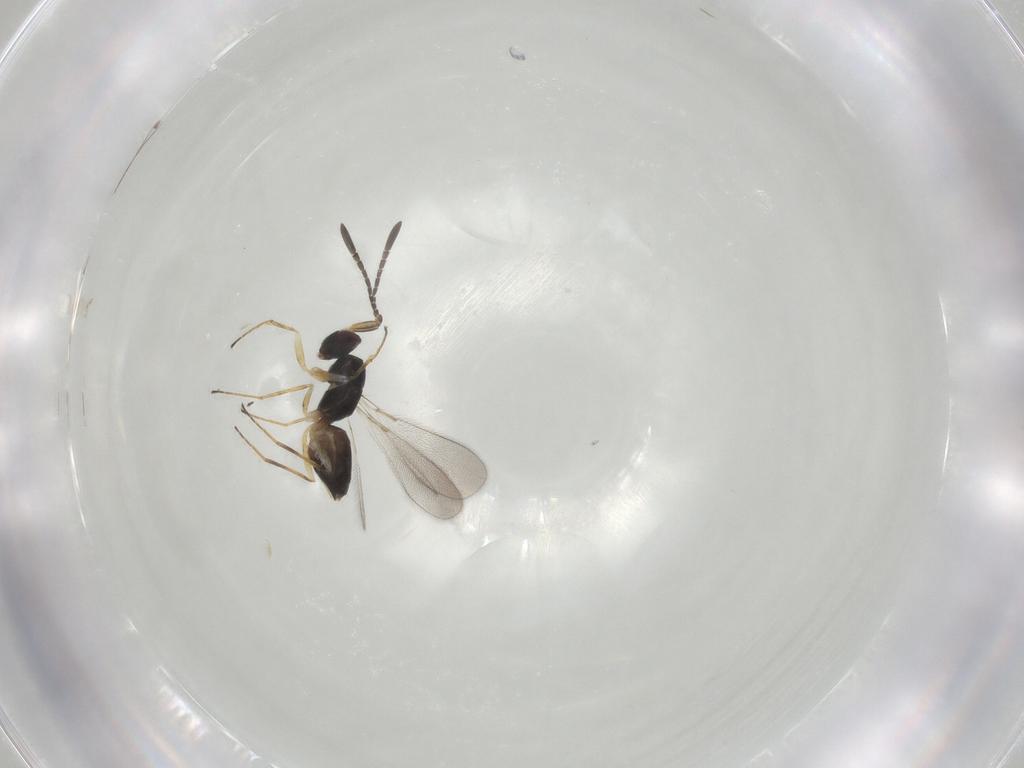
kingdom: Animalia
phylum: Arthropoda
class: Insecta
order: Hymenoptera
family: Mymaridae
